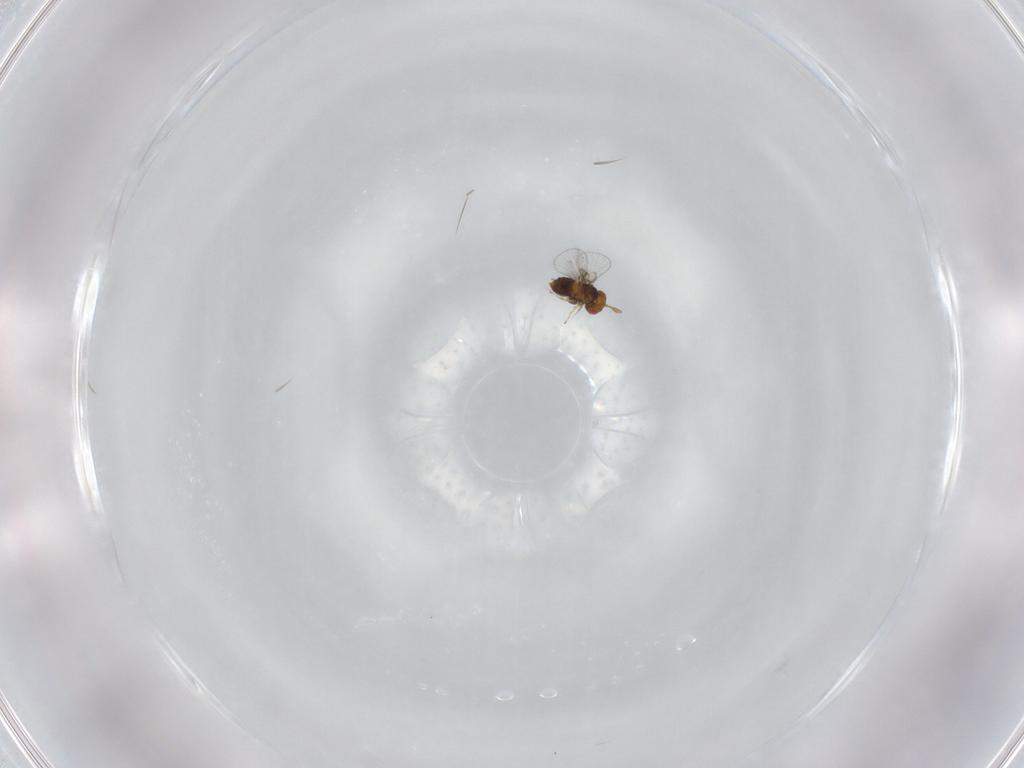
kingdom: Animalia
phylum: Arthropoda
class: Insecta
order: Hymenoptera
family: Trichogrammatidae
